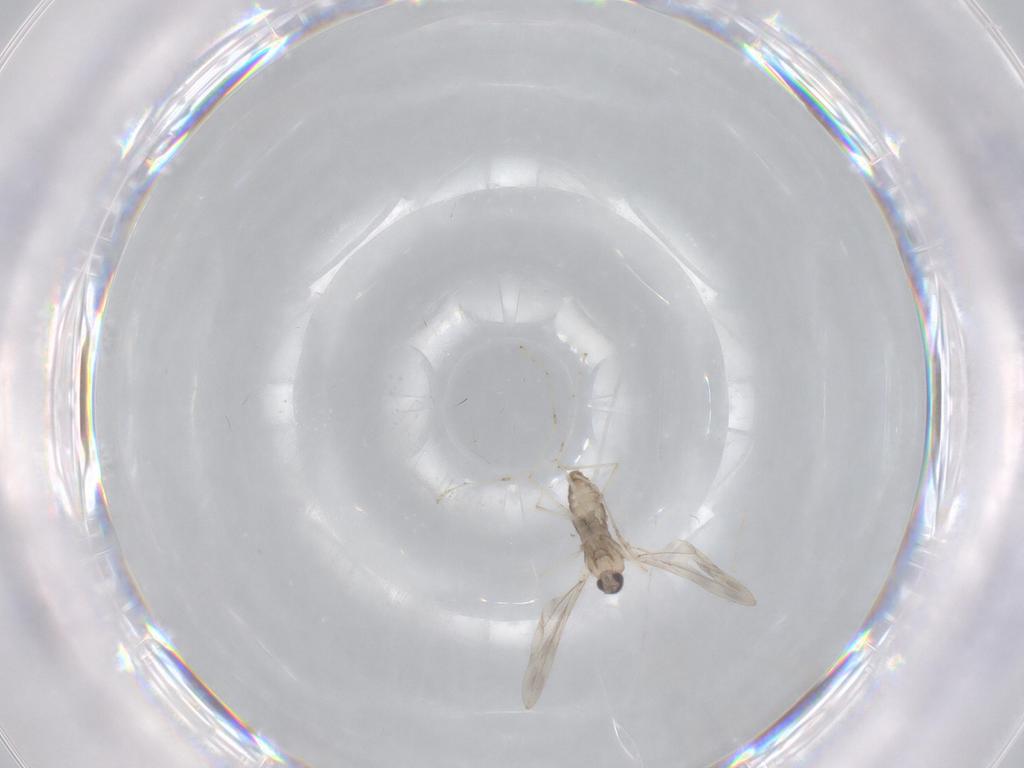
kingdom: Animalia
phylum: Arthropoda
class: Insecta
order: Diptera
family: Cecidomyiidae
